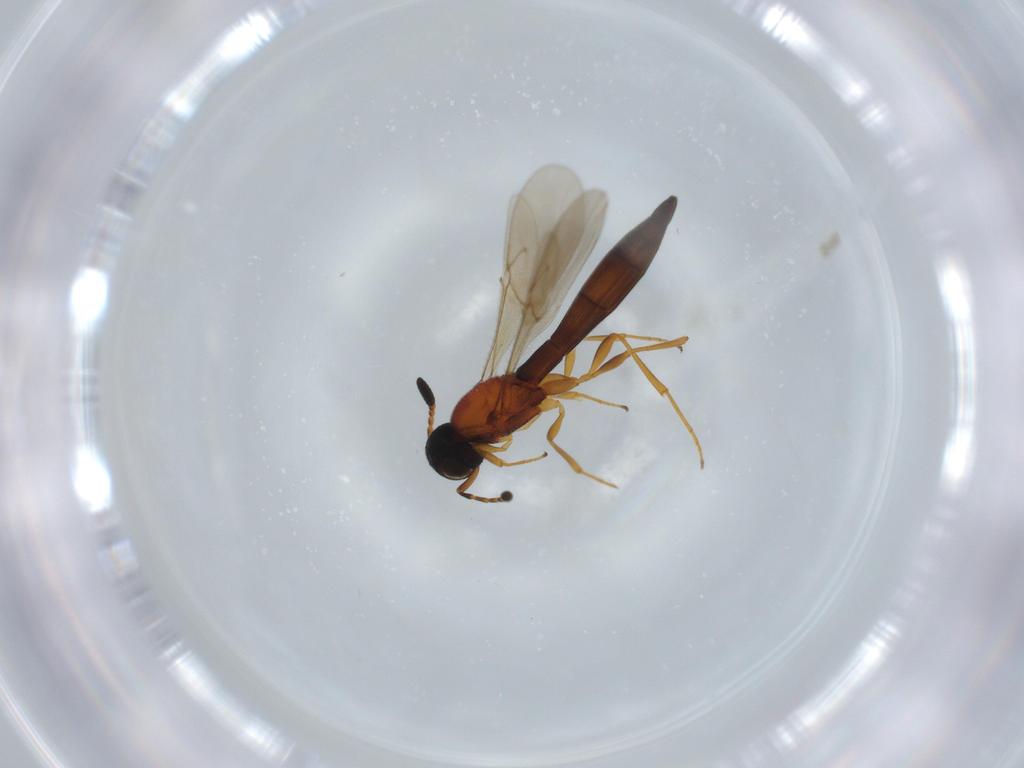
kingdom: Animalia
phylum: Arthropoda
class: Insecta
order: Hymenoptera
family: Scelionidae
